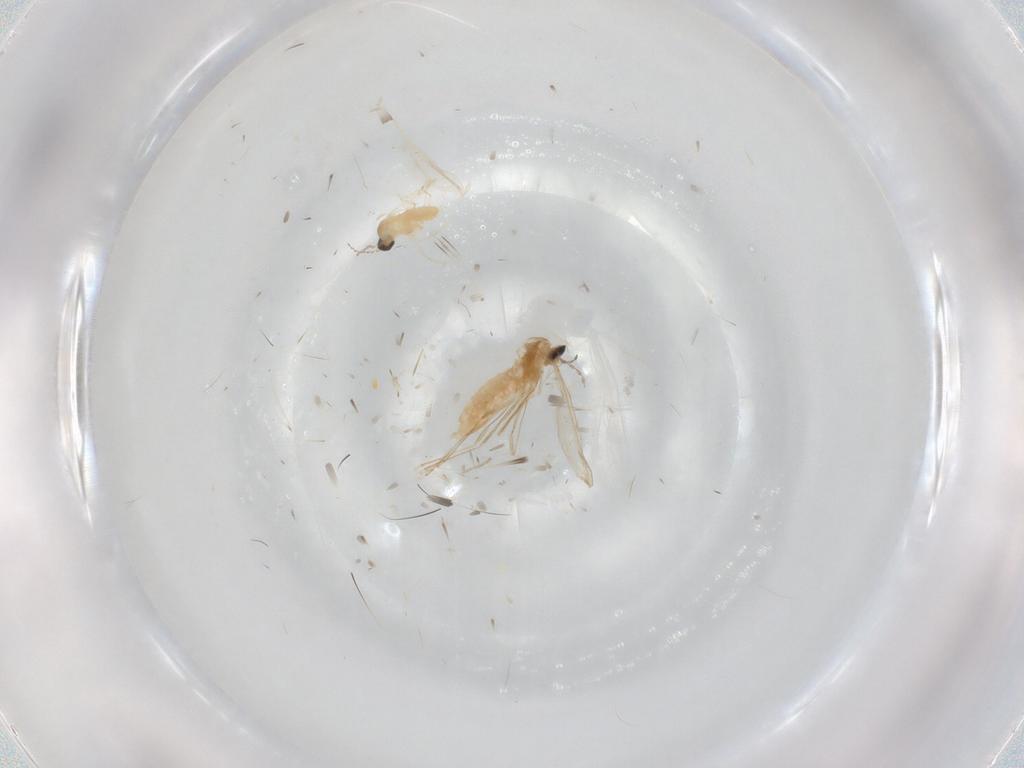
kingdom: Animalia
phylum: Arthropoda
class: Insecta
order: Diptera
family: Cecidomyiidae
